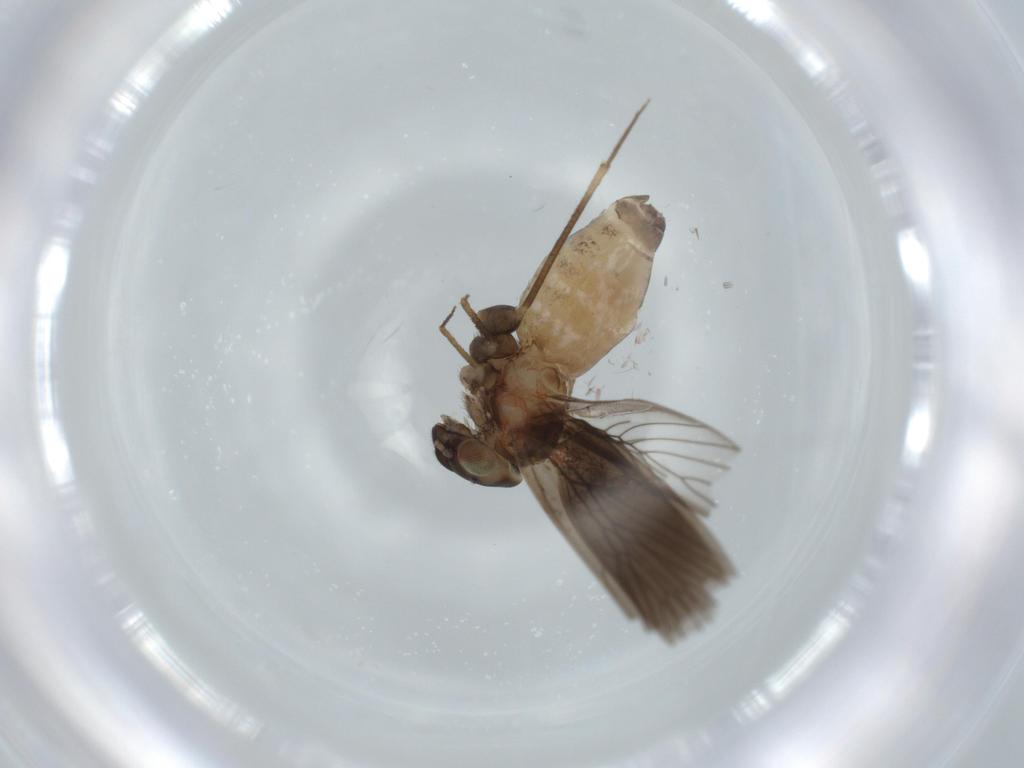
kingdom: Animalia
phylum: Arthropoda
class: Insecta
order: Psocodea
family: Lepidopsocidae
